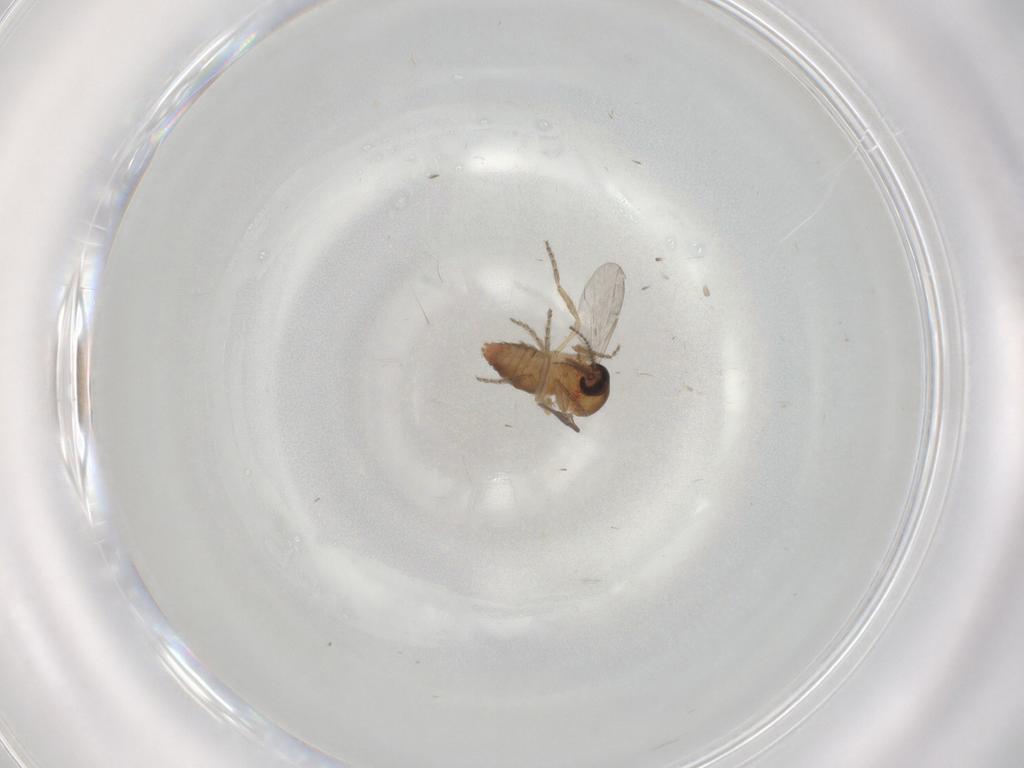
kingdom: Animalia
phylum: Arthropoda
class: Insecta
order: Diptera
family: Ceratopogonidae
